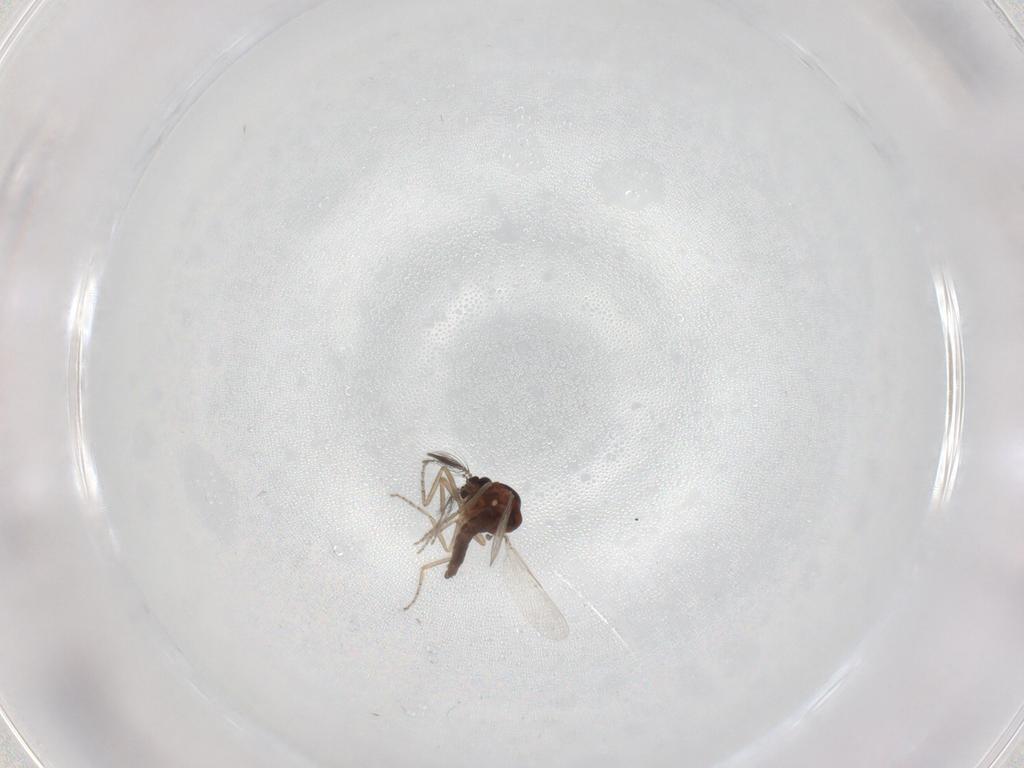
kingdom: Animalia
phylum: Arthropoda
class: Insecta
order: Diptera
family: Ceratopogonidae
